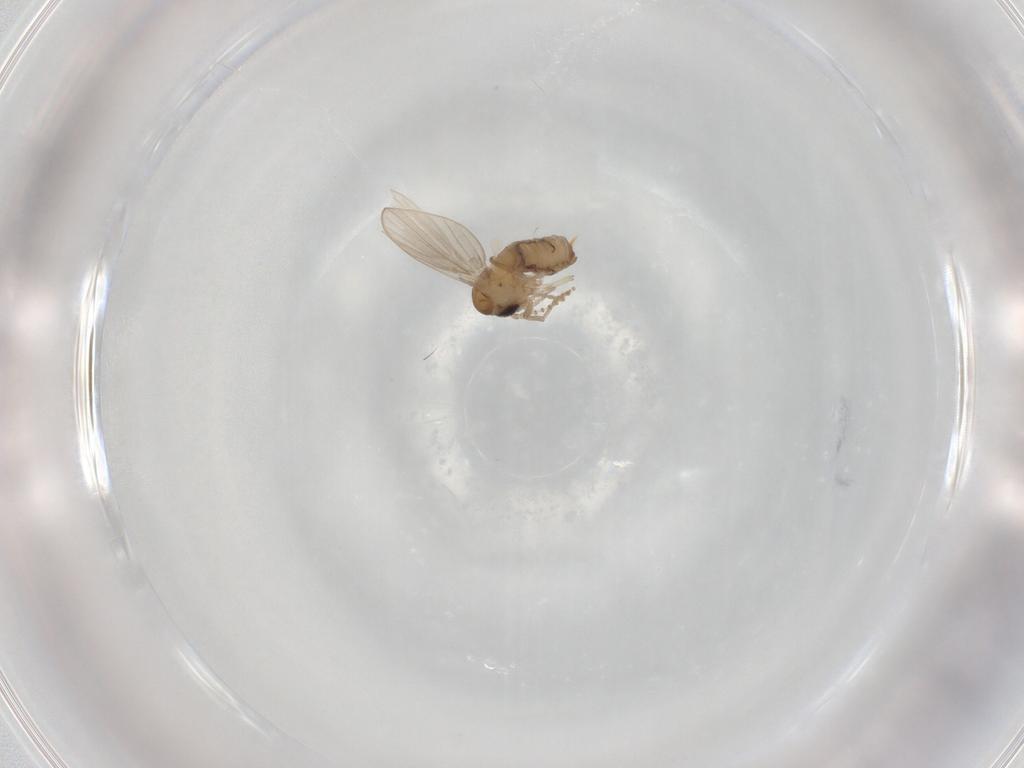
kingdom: Animalia
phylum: Arthropoda
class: Insecta
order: Diptera
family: Psychodidae
